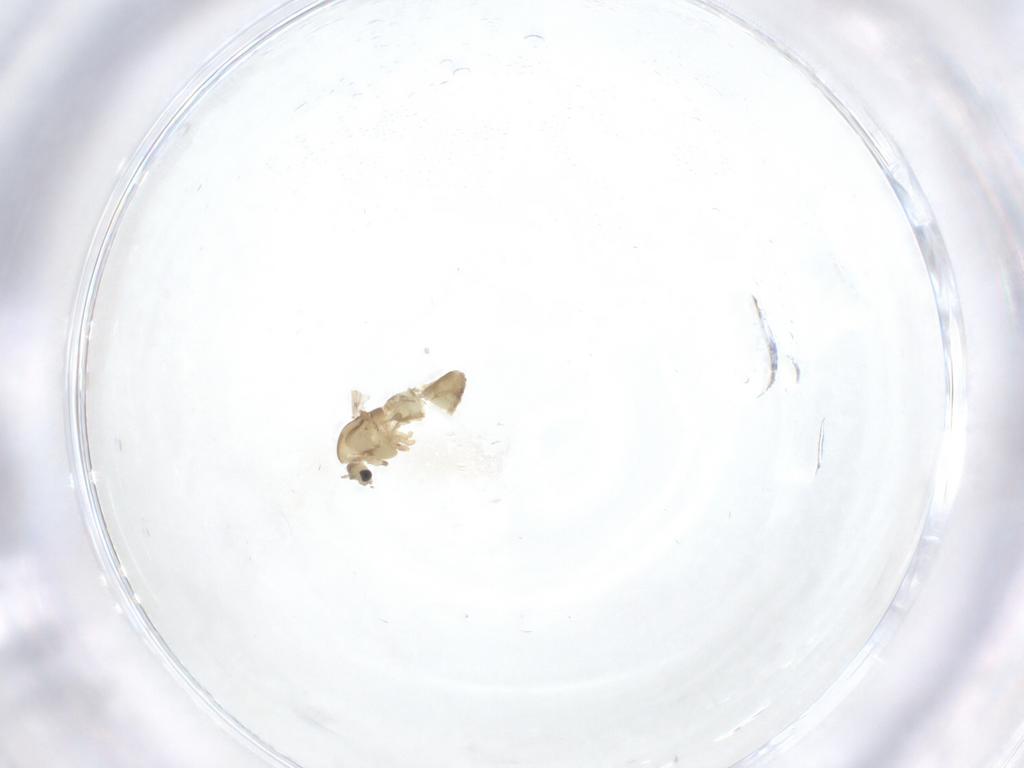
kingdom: Animalia
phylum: Arthropoda
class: Insecta
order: Diptera
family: Chironomidae
